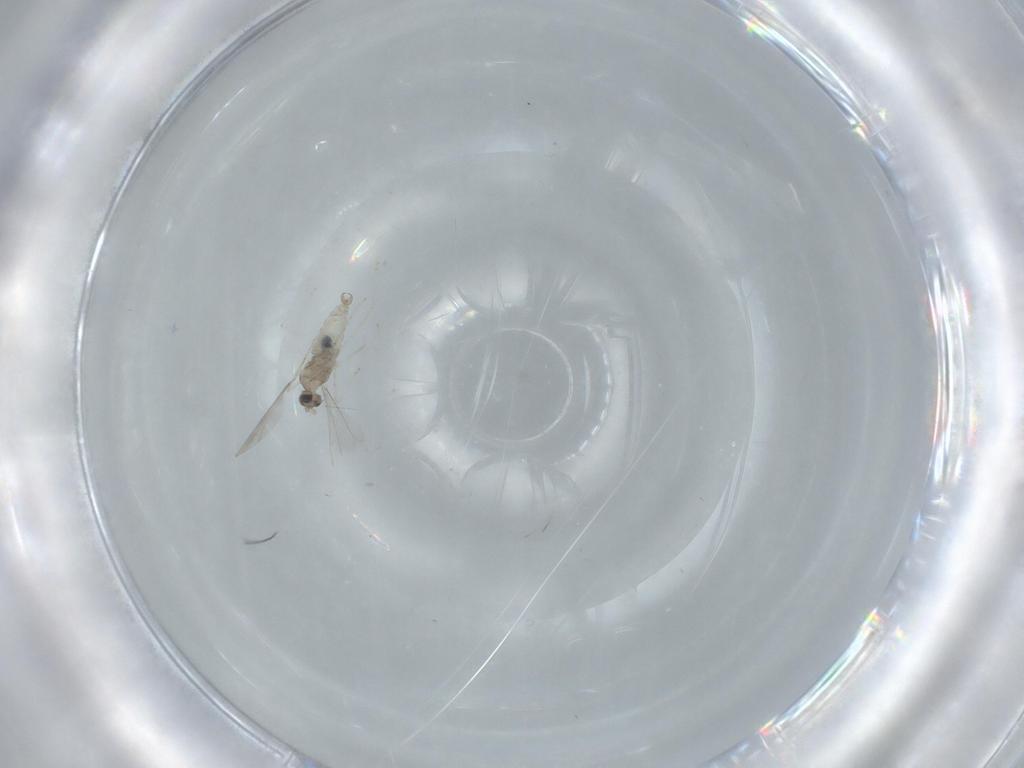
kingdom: Animalia
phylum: Arthropoda
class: Insecta
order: Diptera
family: Cecidomyiidae
